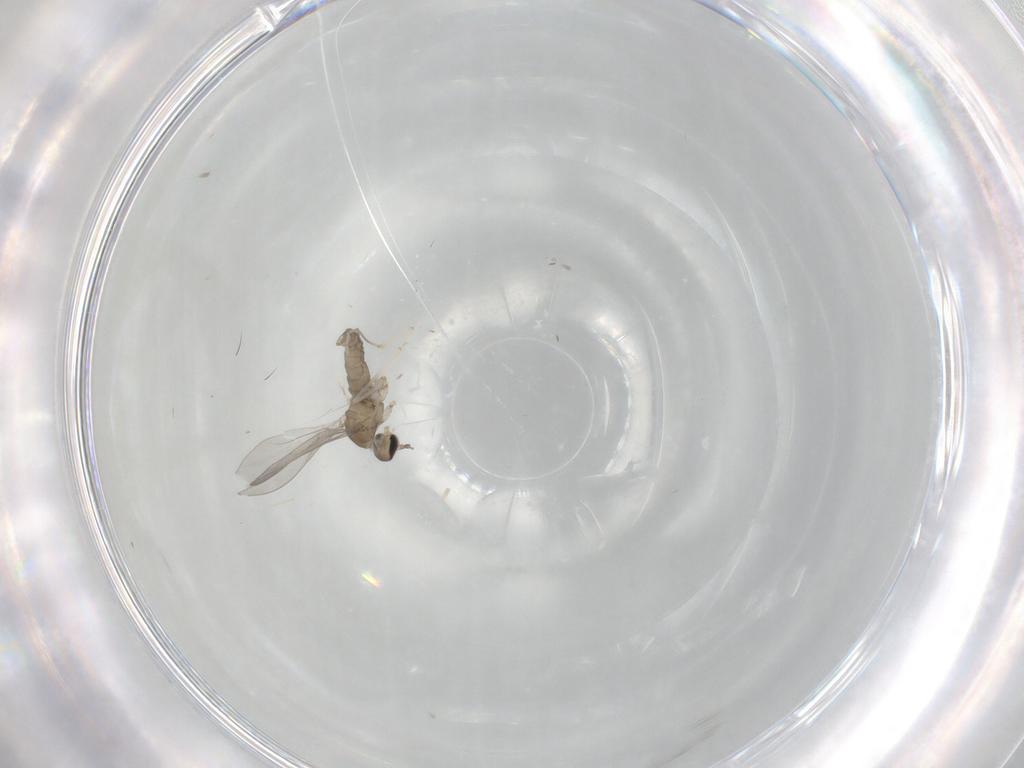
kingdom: Animalia
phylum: Arthropoda
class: Insecta
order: Diptera
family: Cecidomyiidae
